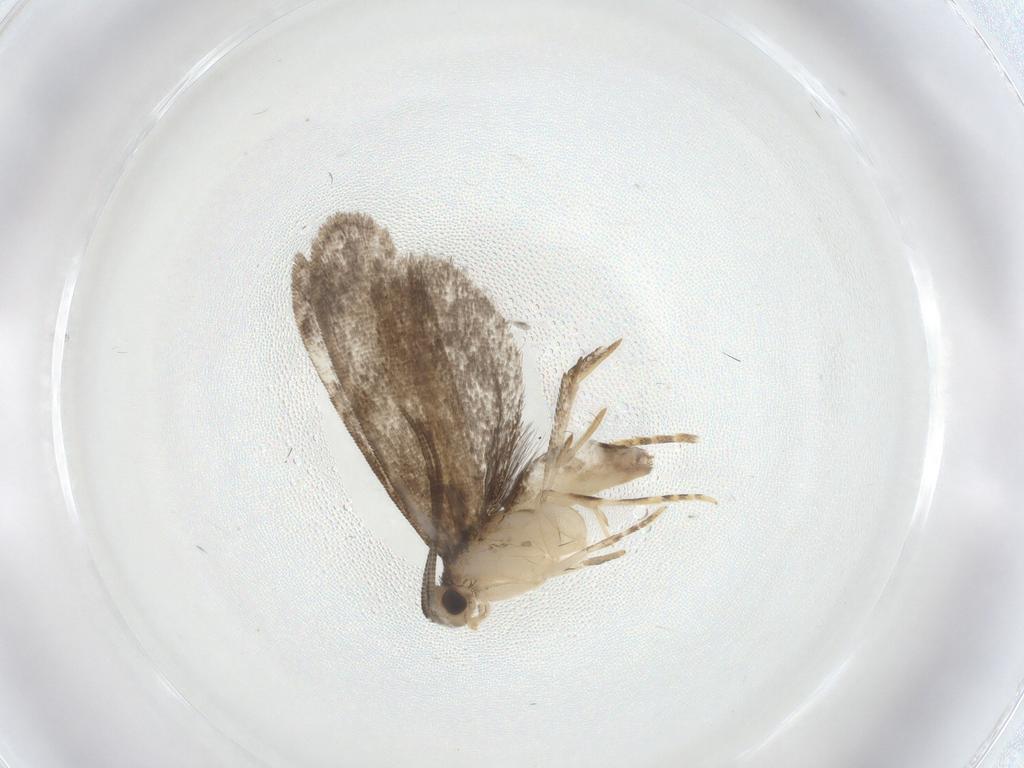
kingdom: Animalia
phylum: Arthropoda
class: Insecta
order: Lepidoptera
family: Dryadaulidae
